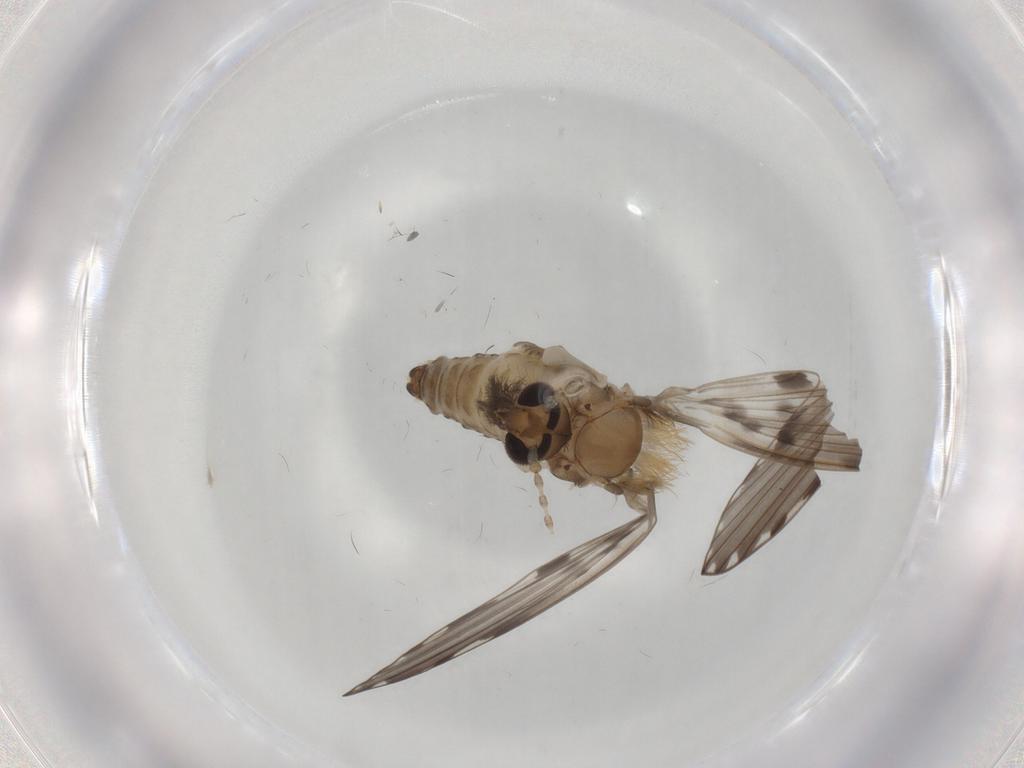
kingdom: Animalia
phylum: Arthropoda
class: Insecta
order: Diptera
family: Psychodidae
